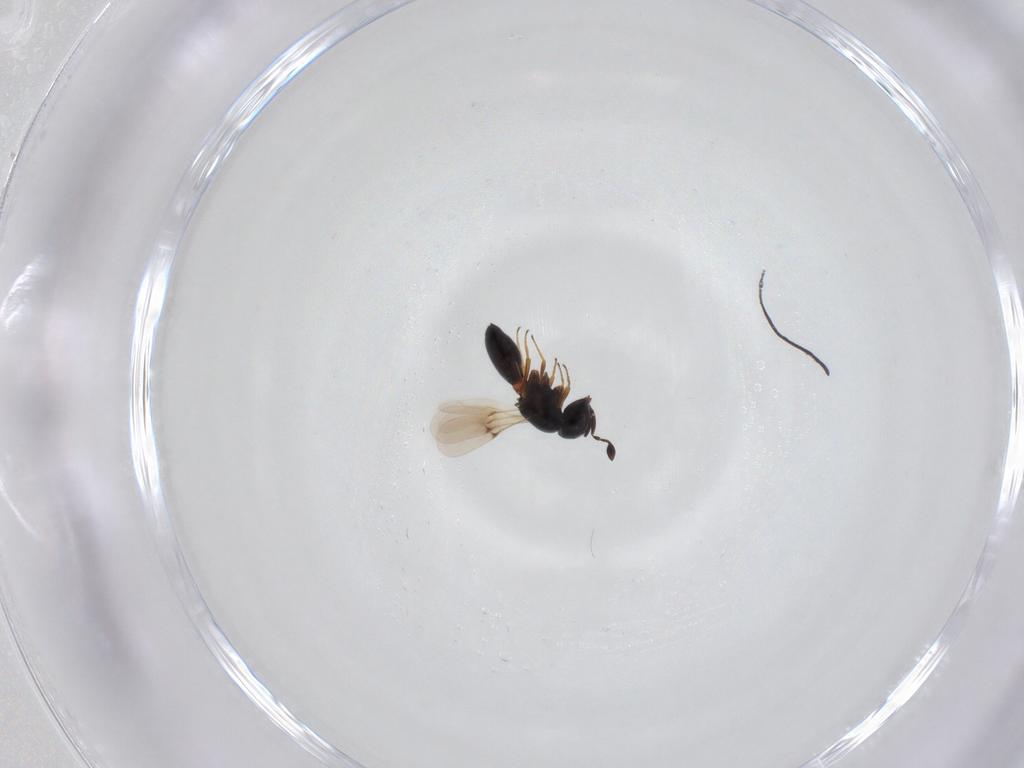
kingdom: Animalia
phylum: Arthropoda
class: Insecta
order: Hymenoptera
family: Scelionidae
